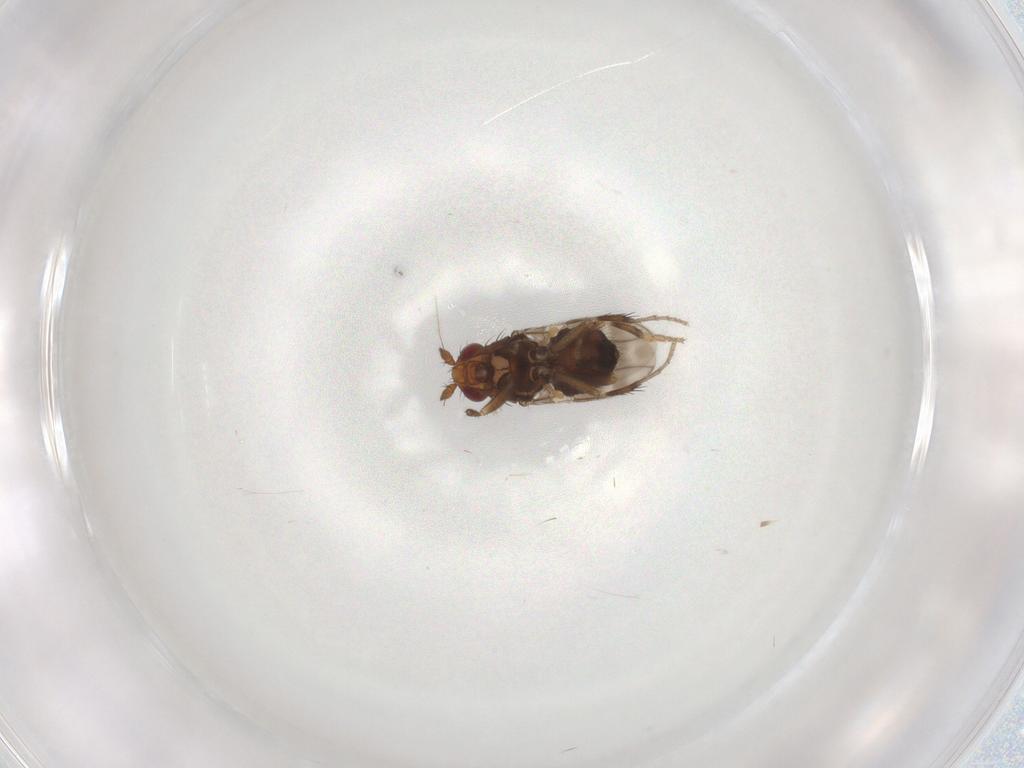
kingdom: Animalia
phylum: Arthropoda
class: Insecta
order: Diptera
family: Sphaeroceridae
